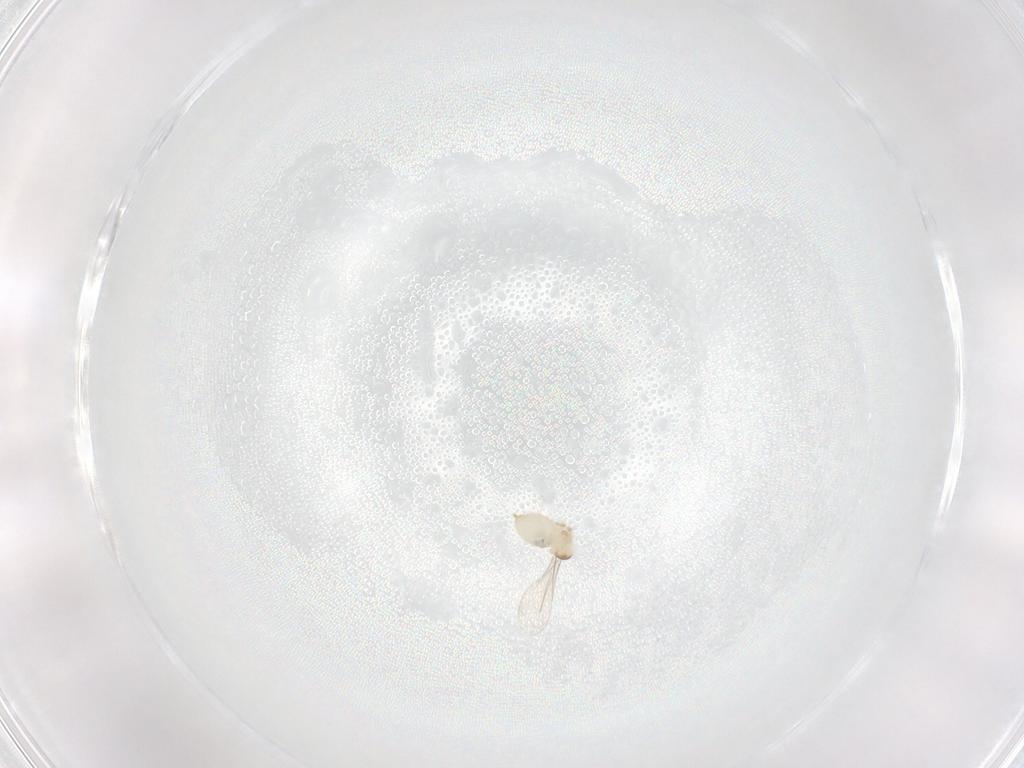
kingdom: Animalia
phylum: Arthropoda
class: Insecta
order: Diptera
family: Cecidomyiidae
